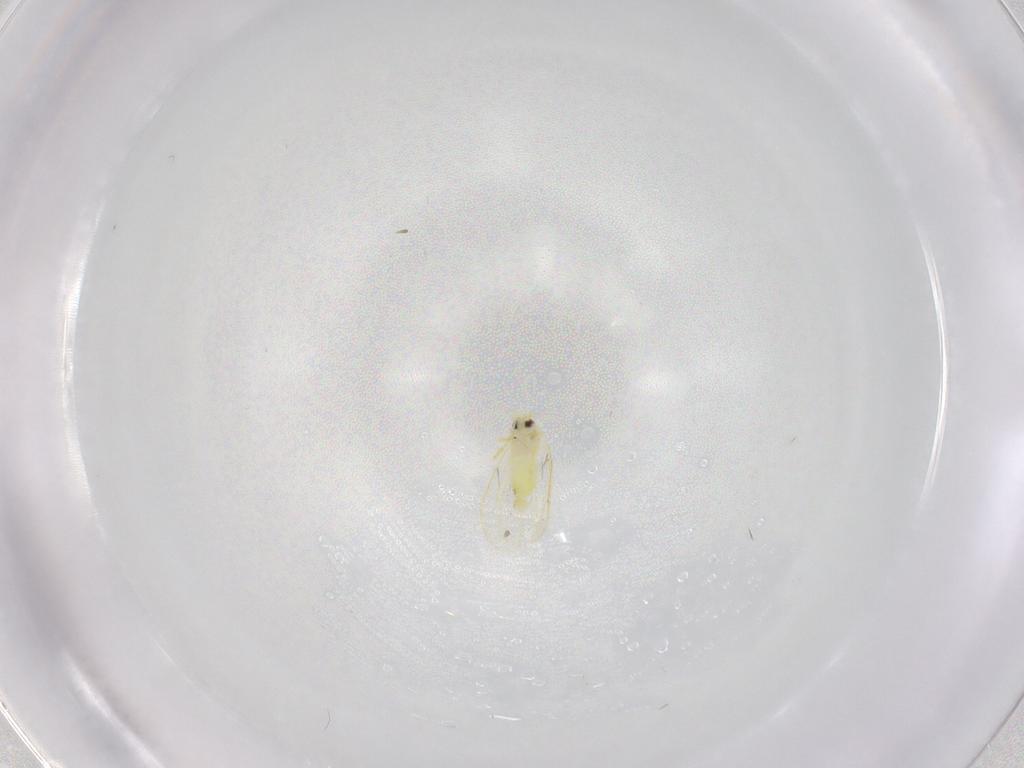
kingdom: Animalia
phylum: Arthropoda
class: Insecta
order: Hemiptera
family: Aleyrodidae
